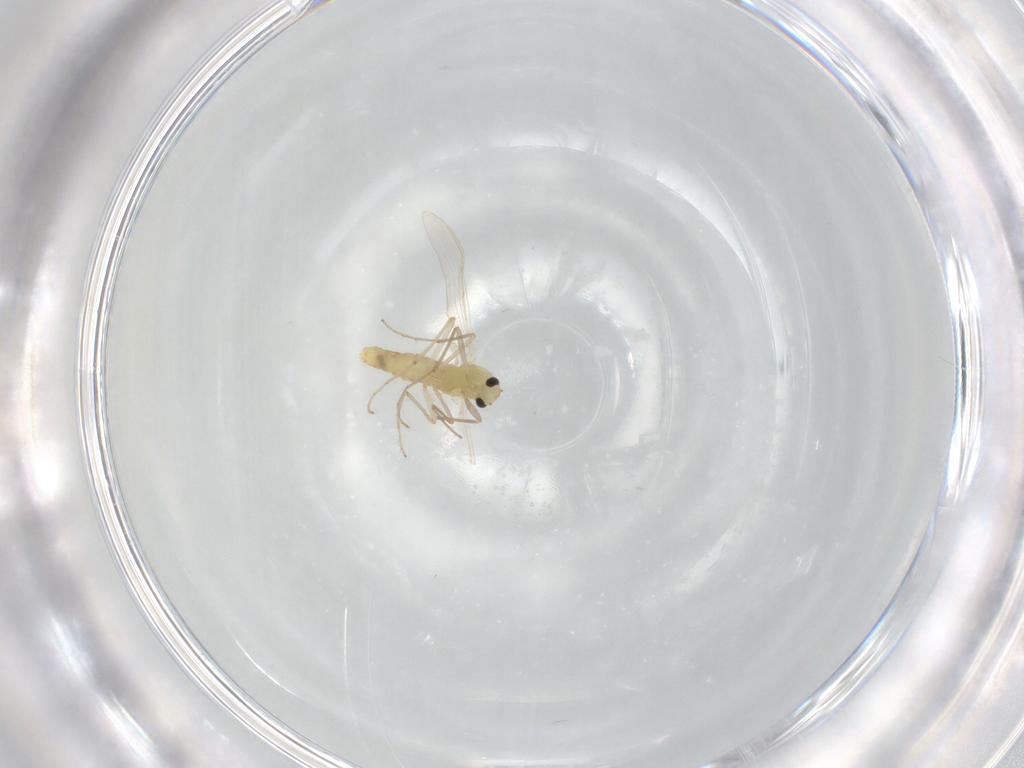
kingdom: Animalia
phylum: Arthropoda
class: Insecta
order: Diptera
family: Chironomidae
